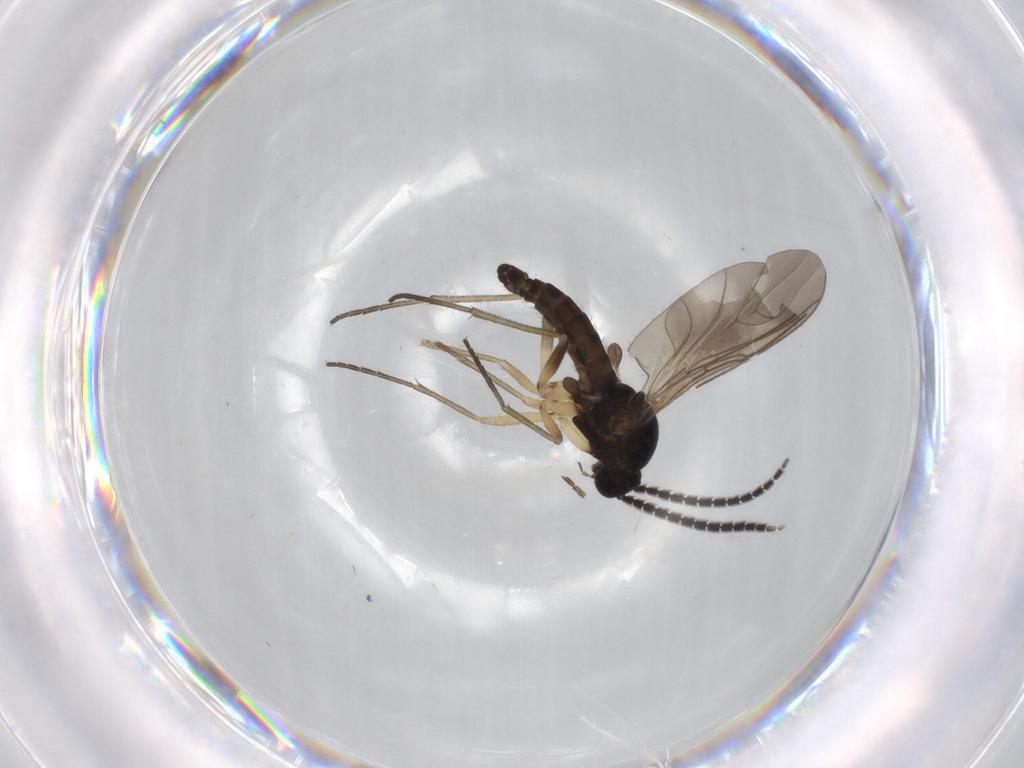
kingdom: Animalia
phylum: Arthropoda
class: Insecta
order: Diptera
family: Sciaridae
